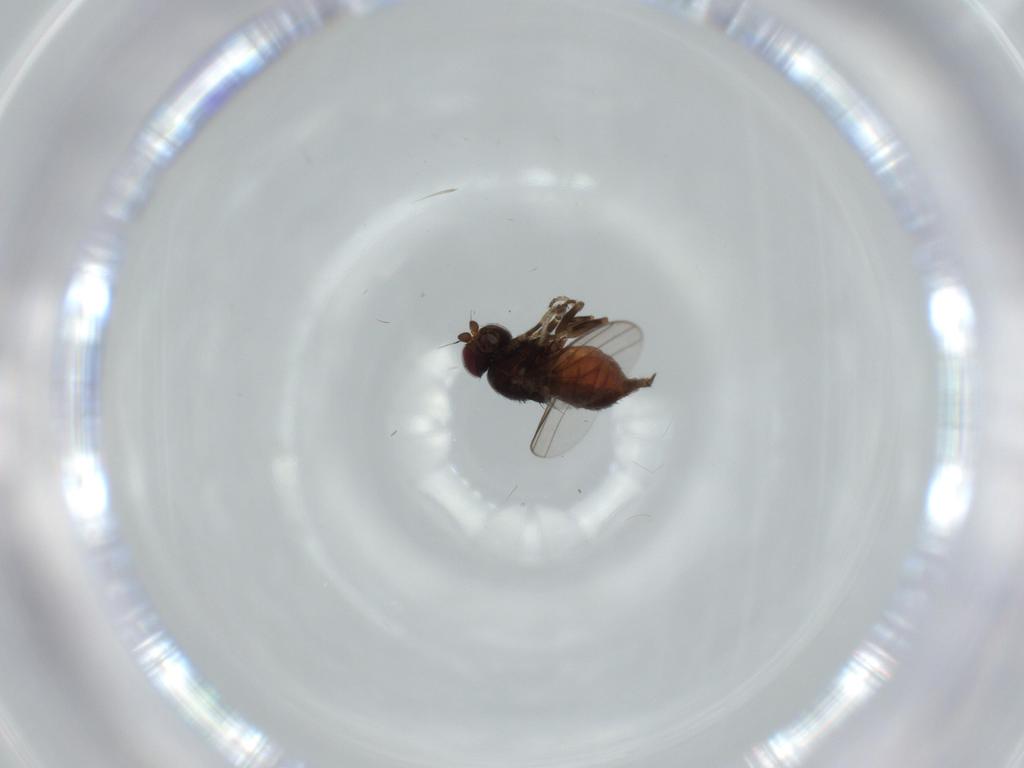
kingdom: Animalia
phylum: Arthropoda
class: Insecta
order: Diptera
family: Chloropidae
